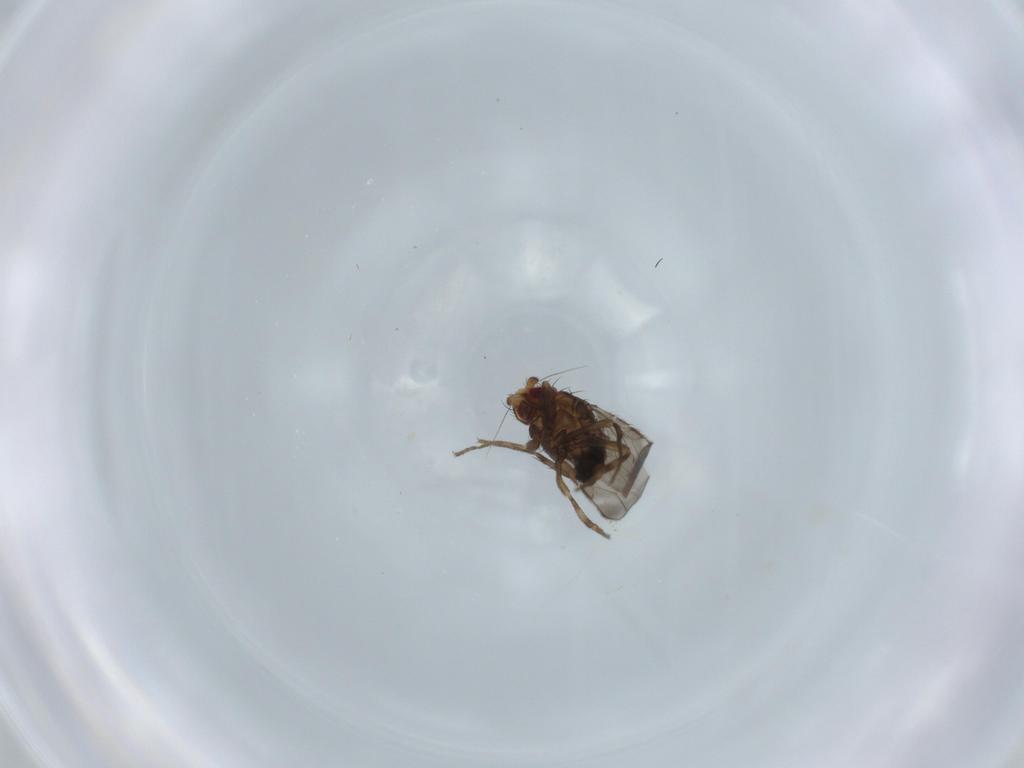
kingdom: Animalia
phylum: Arthropoda
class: Insecta
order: Diptera
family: Sphaeroceridae
